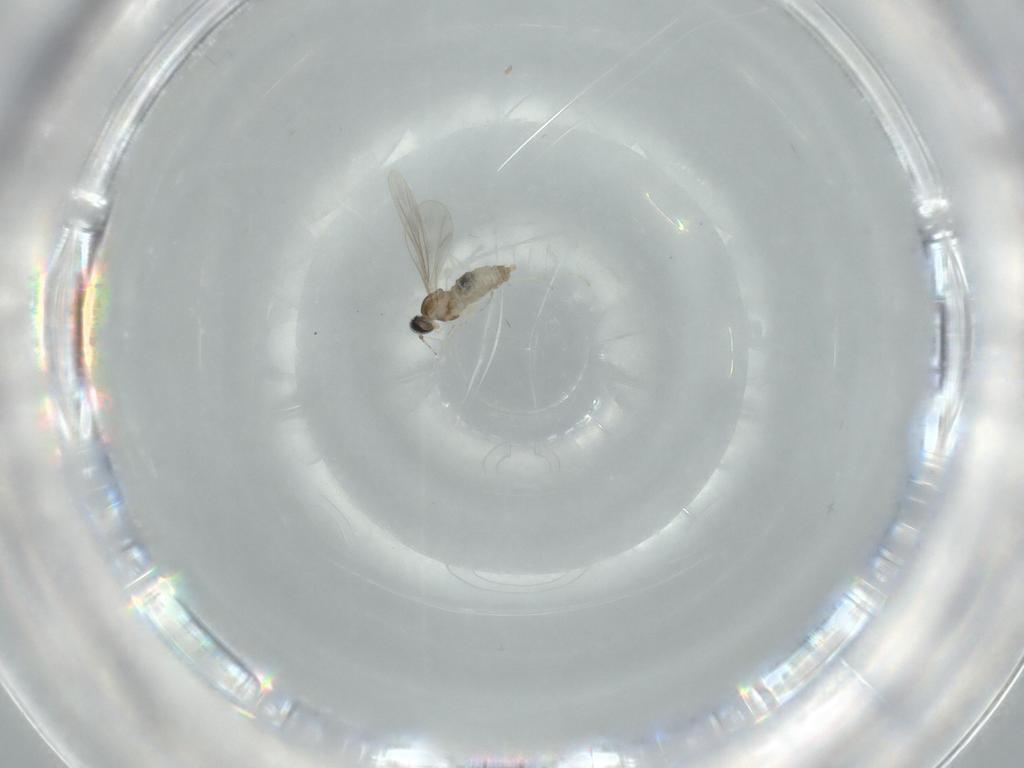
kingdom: Animalia
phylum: Arthropoda
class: Insecta
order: Diptera
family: Cecidomyiidae
